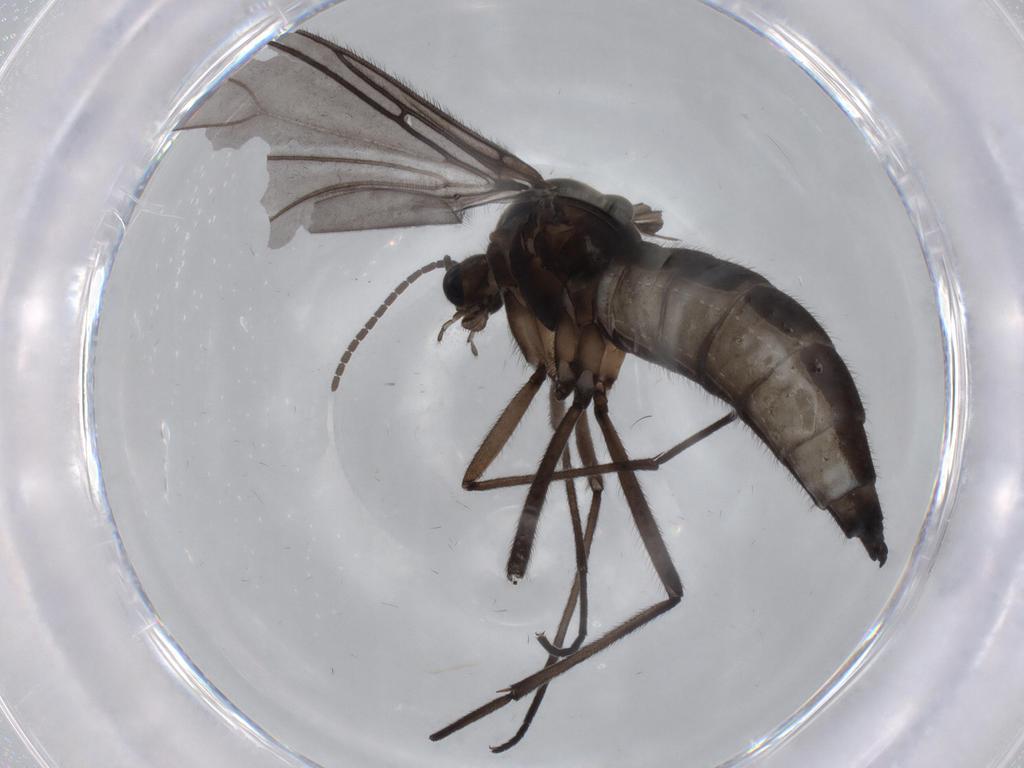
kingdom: Animalia
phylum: Arthropoda
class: Insecta
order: Diptera
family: Sciaridae
